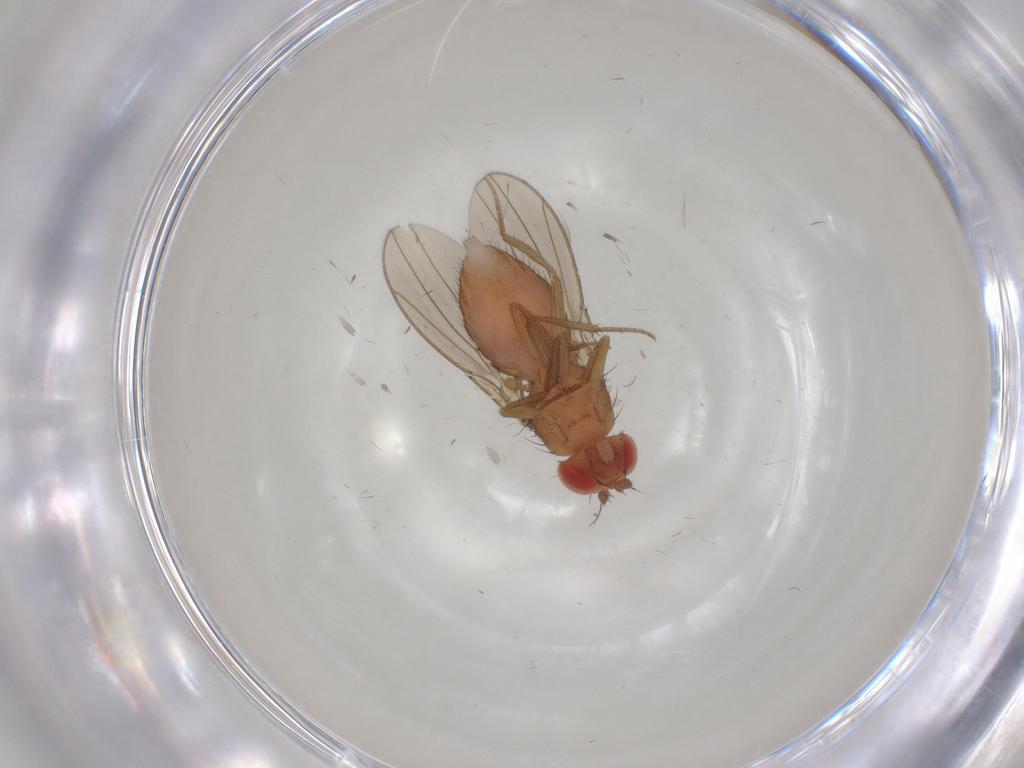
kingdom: Animalia
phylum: Arthropoda
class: Insecta
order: Diptera
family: Drosophilidae
